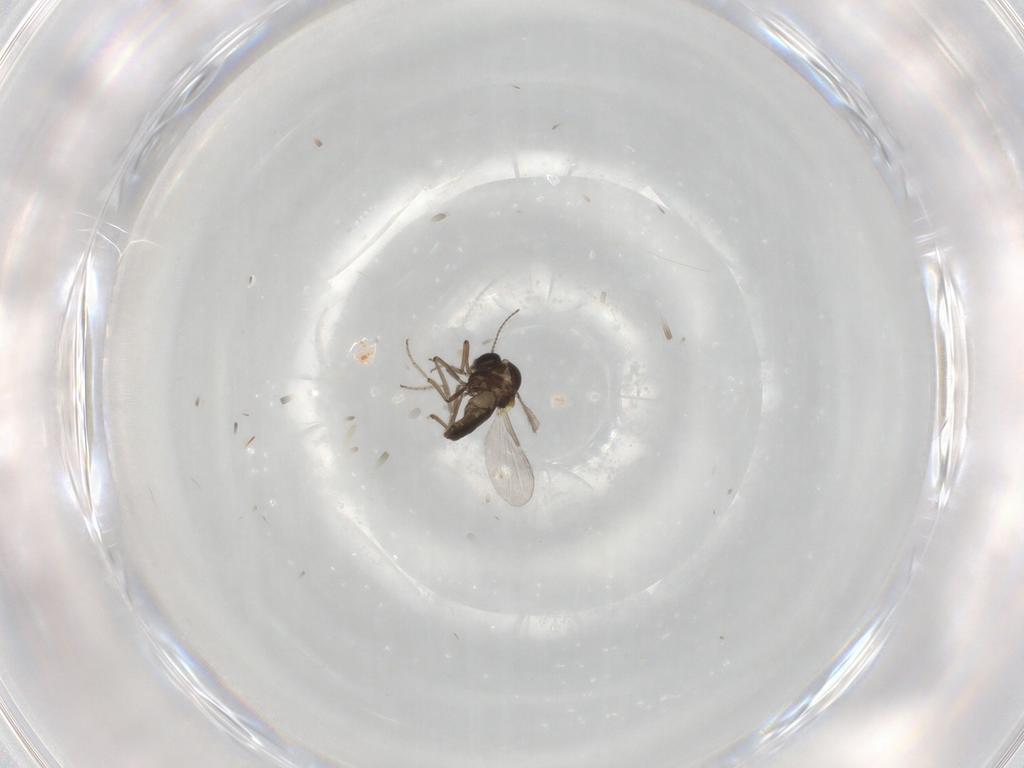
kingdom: Animalia
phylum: Arthropoda
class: Insecta
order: Diptera
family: Ceratopogonidae
